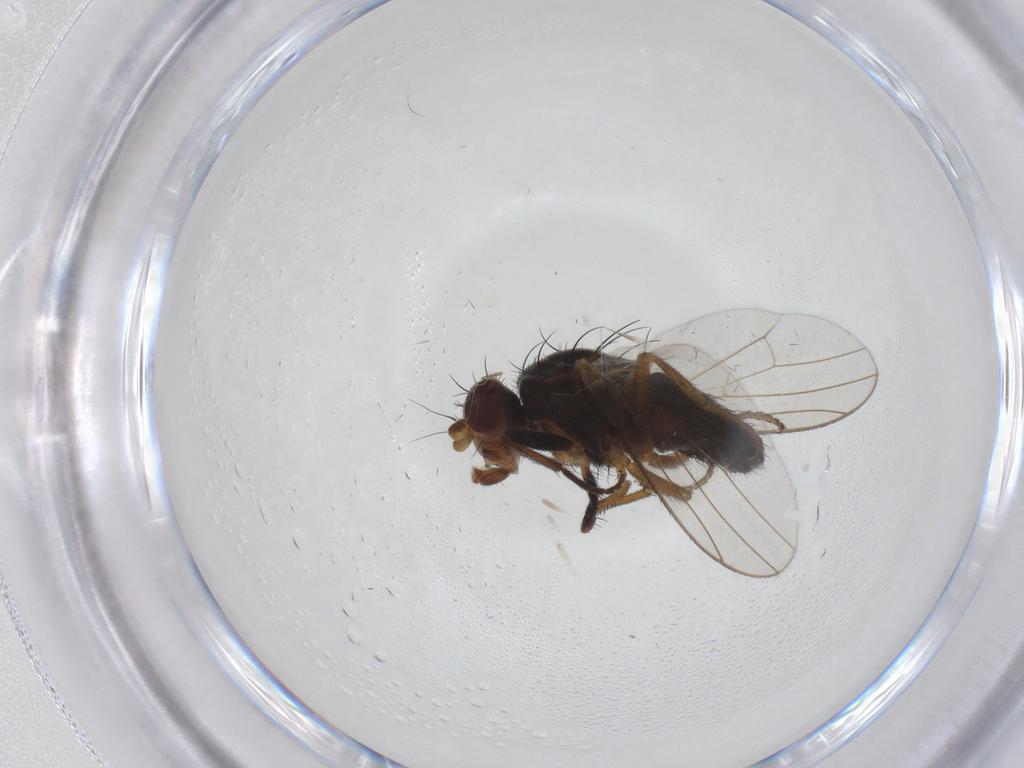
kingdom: Animalia
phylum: Arthropoda
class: Insecta
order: Diptera
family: Heleomyzidae
